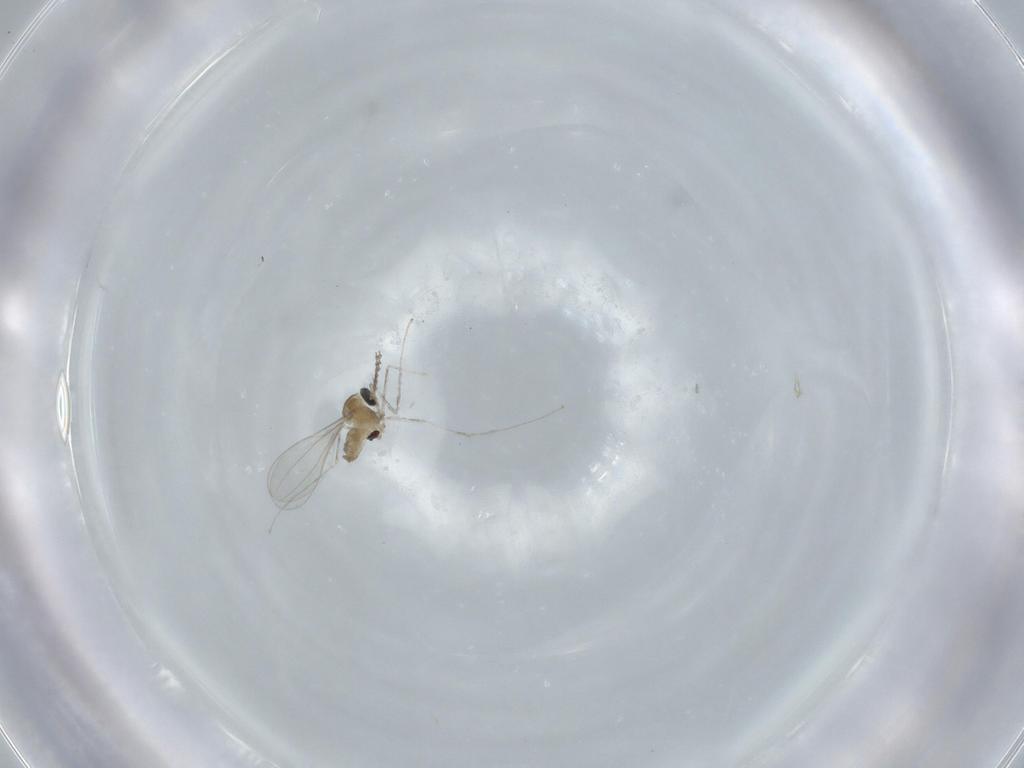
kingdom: Animalia
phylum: Arthropoda
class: Insecta
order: Diptera
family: Cecidomyiidae
